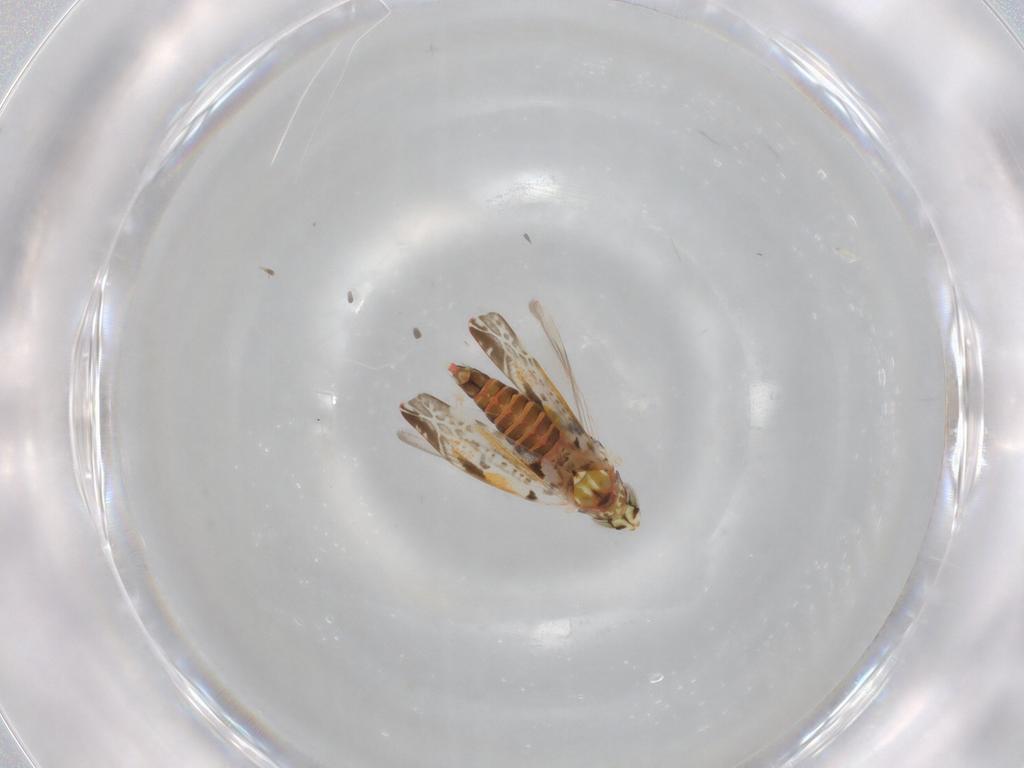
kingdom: Animalia
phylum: Arthropoda
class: Insecta
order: Hemiptera
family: Cicadellidae
